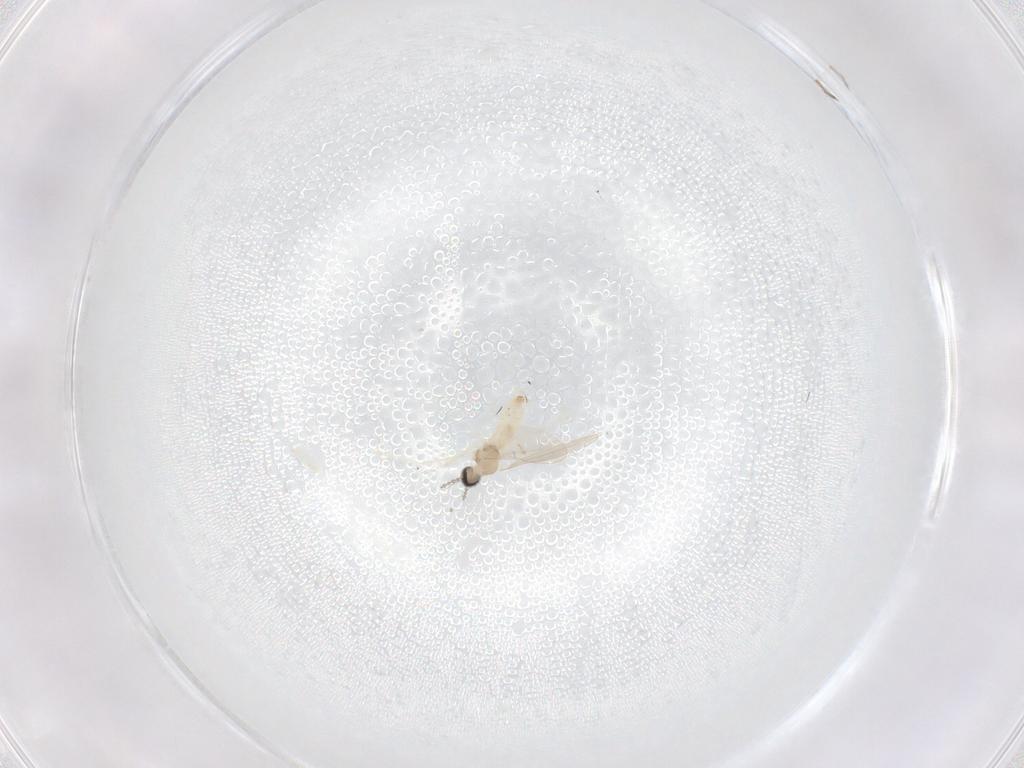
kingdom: Animalia
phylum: Arthropoda
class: Insecta
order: Diptera
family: Cecidomyiidae
